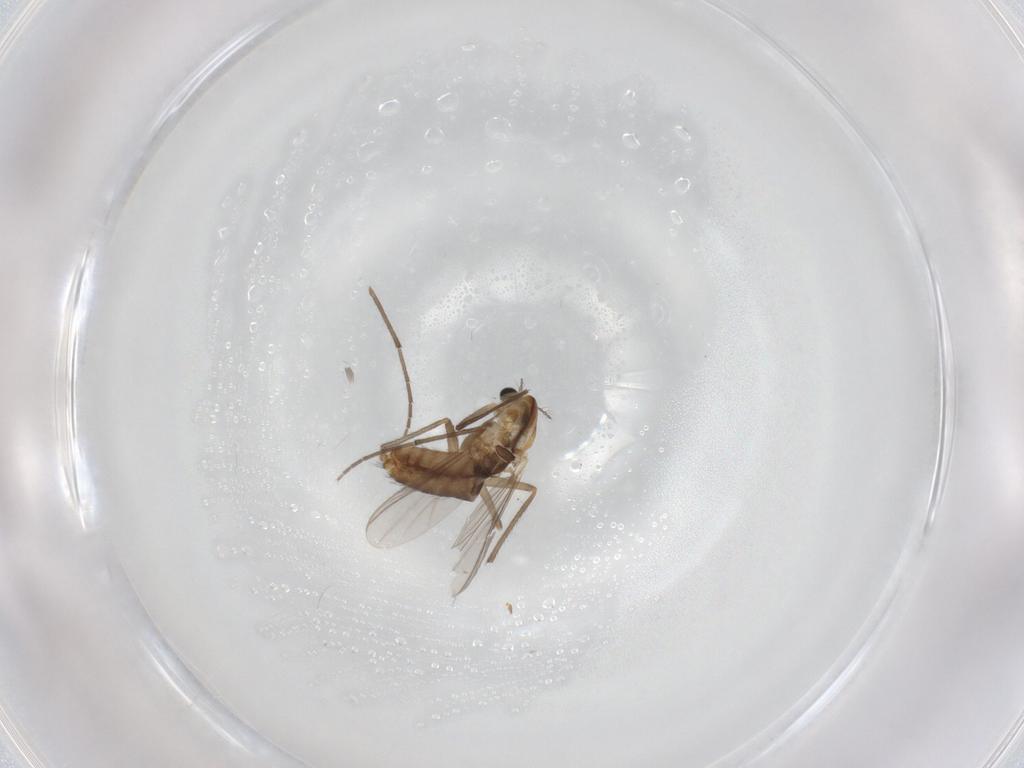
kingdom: Animalia
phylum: Arthropoda
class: Insecta
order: Diptera
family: Chironomidae
